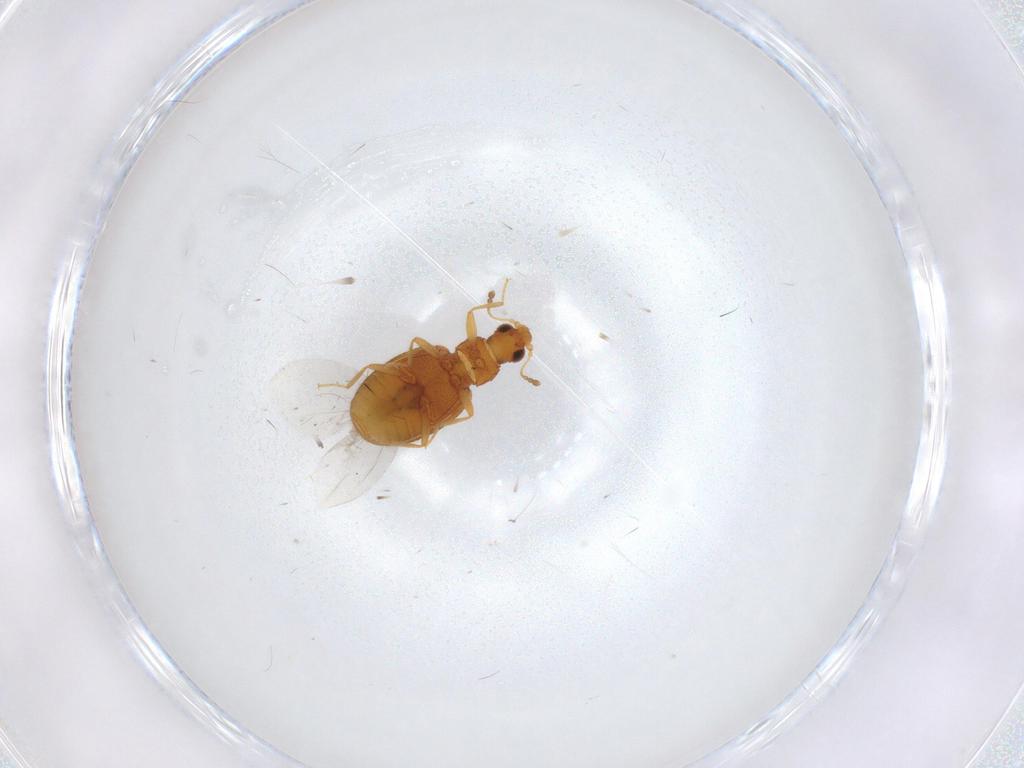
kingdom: Animalia
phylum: Arthropoda
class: Insecta
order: Coleoptera
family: Latridiidae
